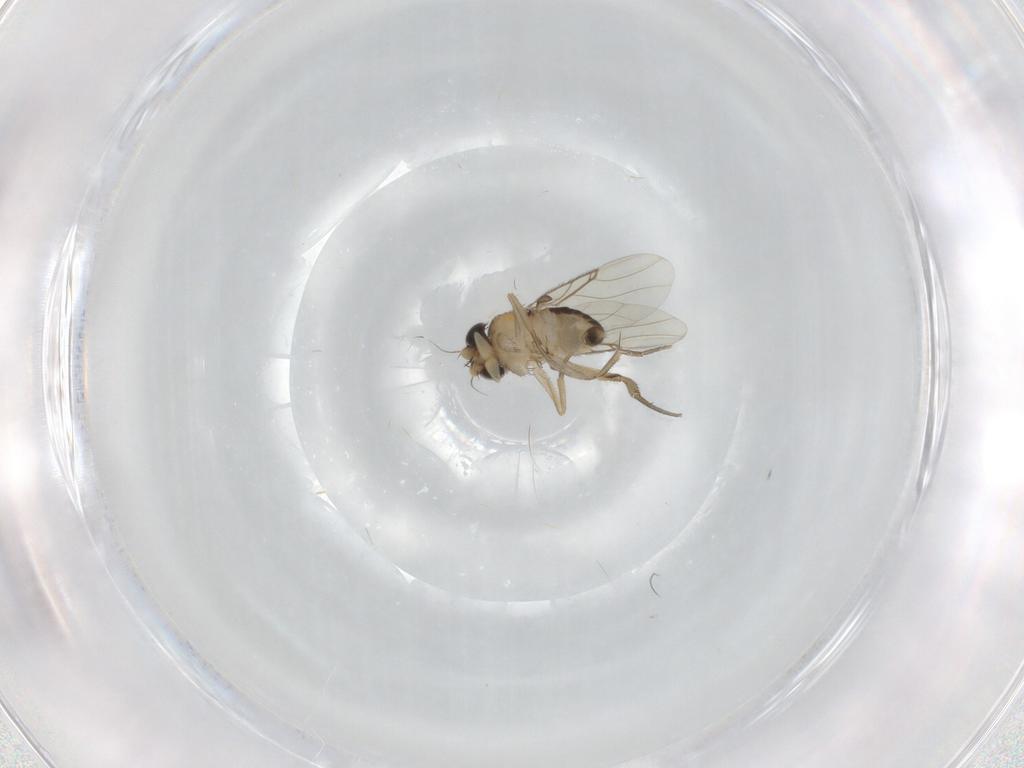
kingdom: Animalia
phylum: Arthropoda
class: Insecta
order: Diptera
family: Phoridae
